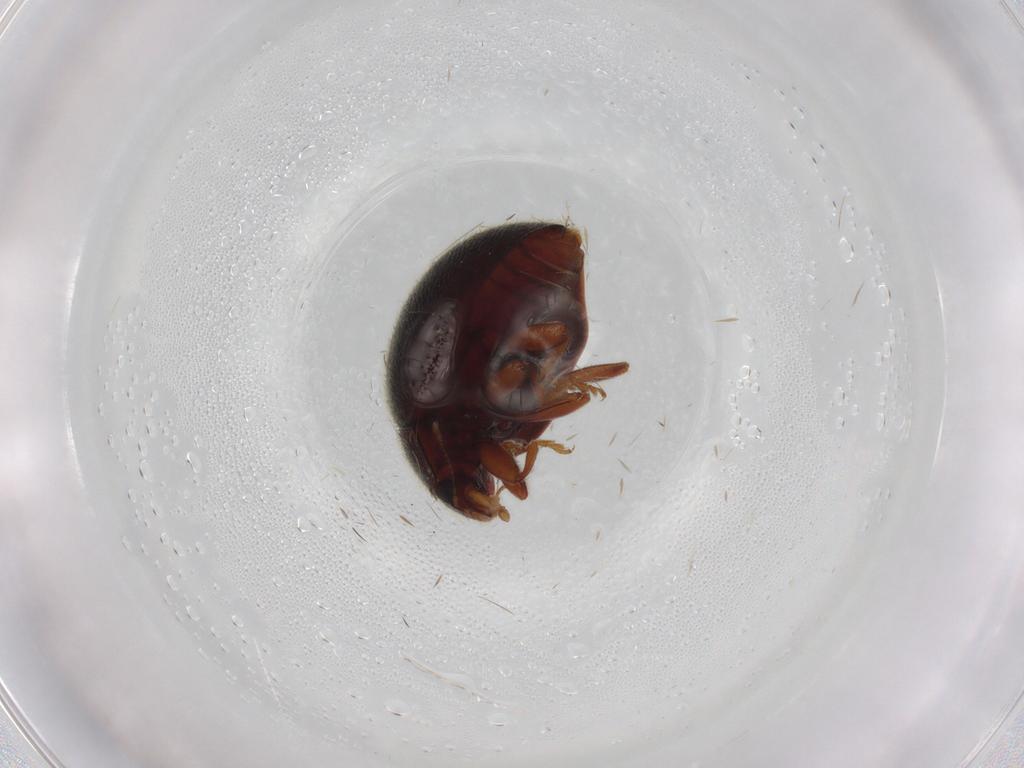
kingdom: Animalia
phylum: Arthropoda
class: Insecta
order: Coleoptera
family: Coccinellidae
